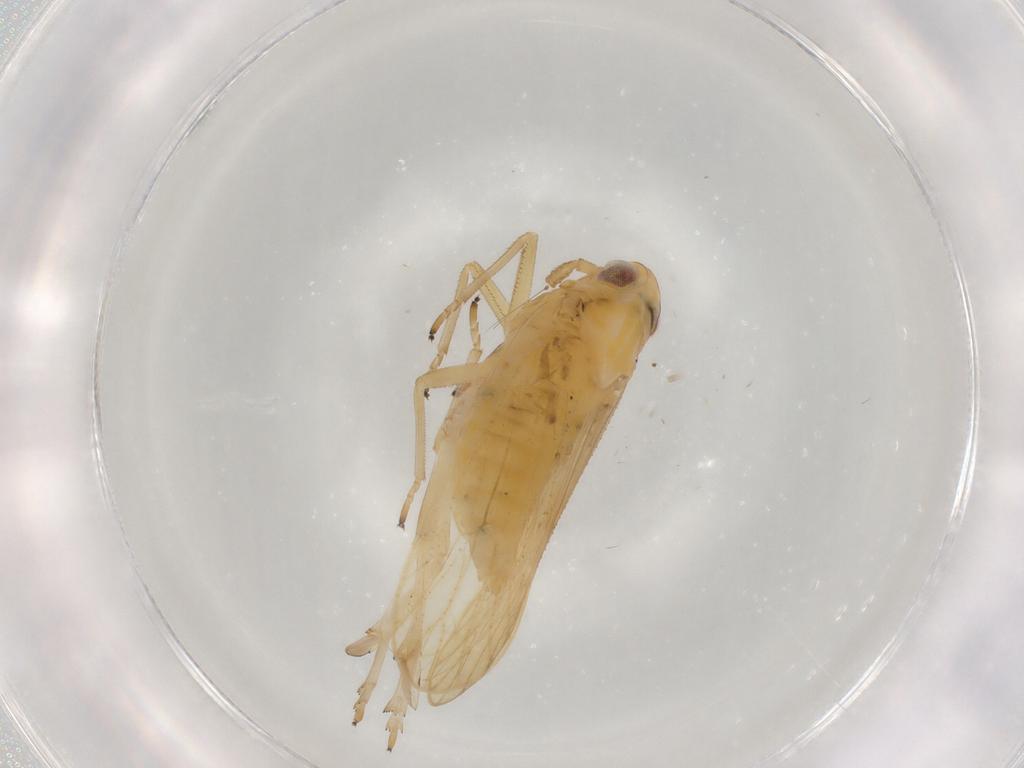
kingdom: Animalia
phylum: Arthropoda
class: Insecta
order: Hemiptera
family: Delphacidae
